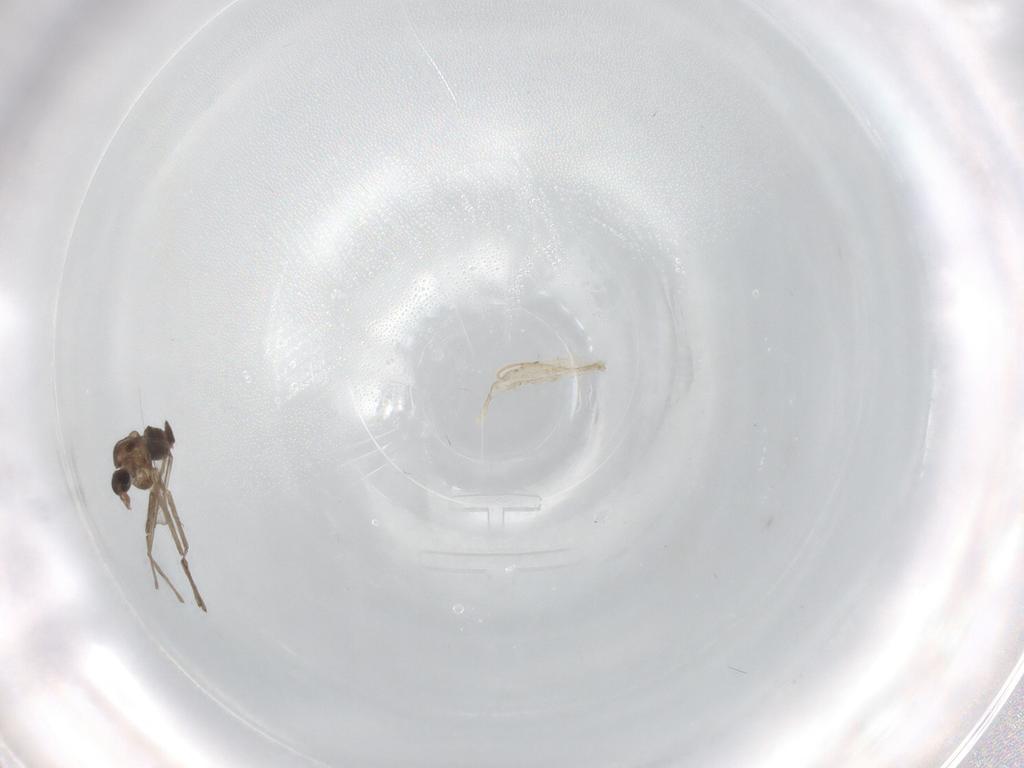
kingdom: Animalia
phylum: Arthropoda
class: Insecta
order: Diptera
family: Chironomidae
